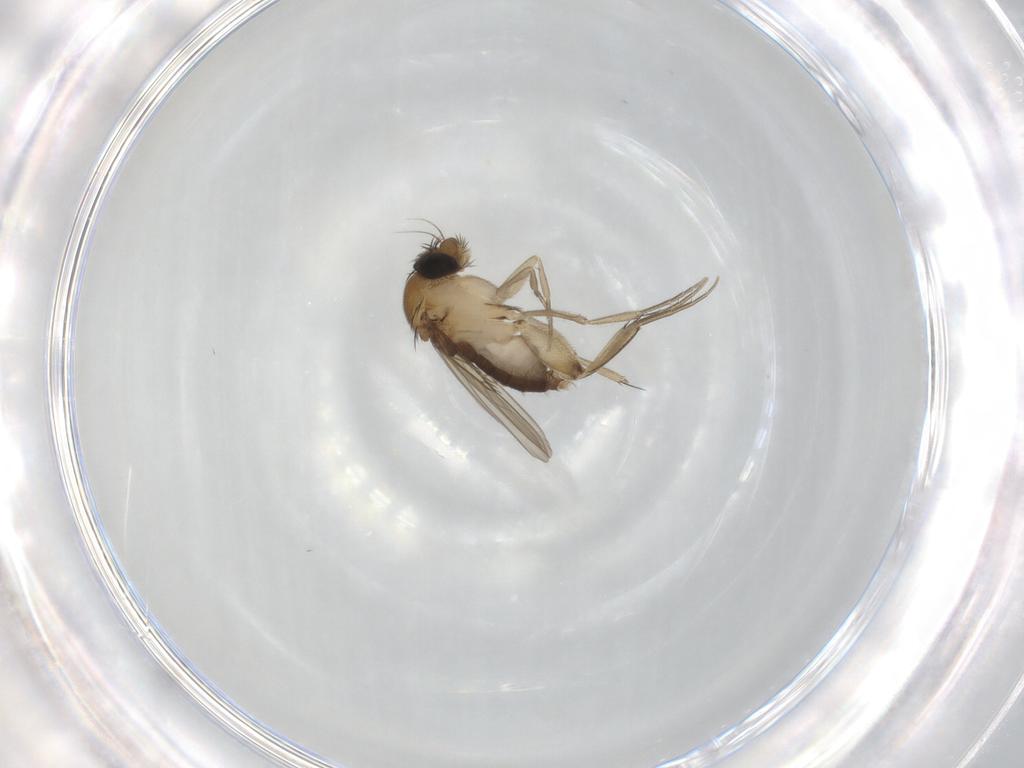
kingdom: Animalia
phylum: Arthropoda
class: Insecta
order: Diptera
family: Phoridae
